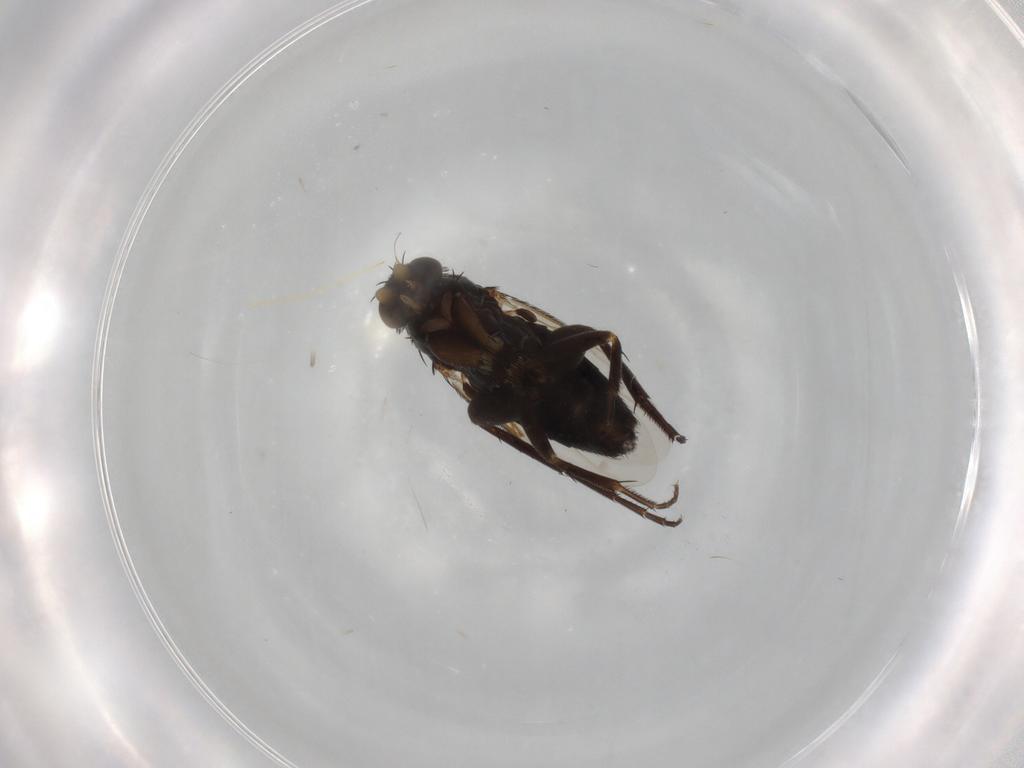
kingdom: Animalia
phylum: Arthropoda
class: Insecta
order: Diptera
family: Phoridae
